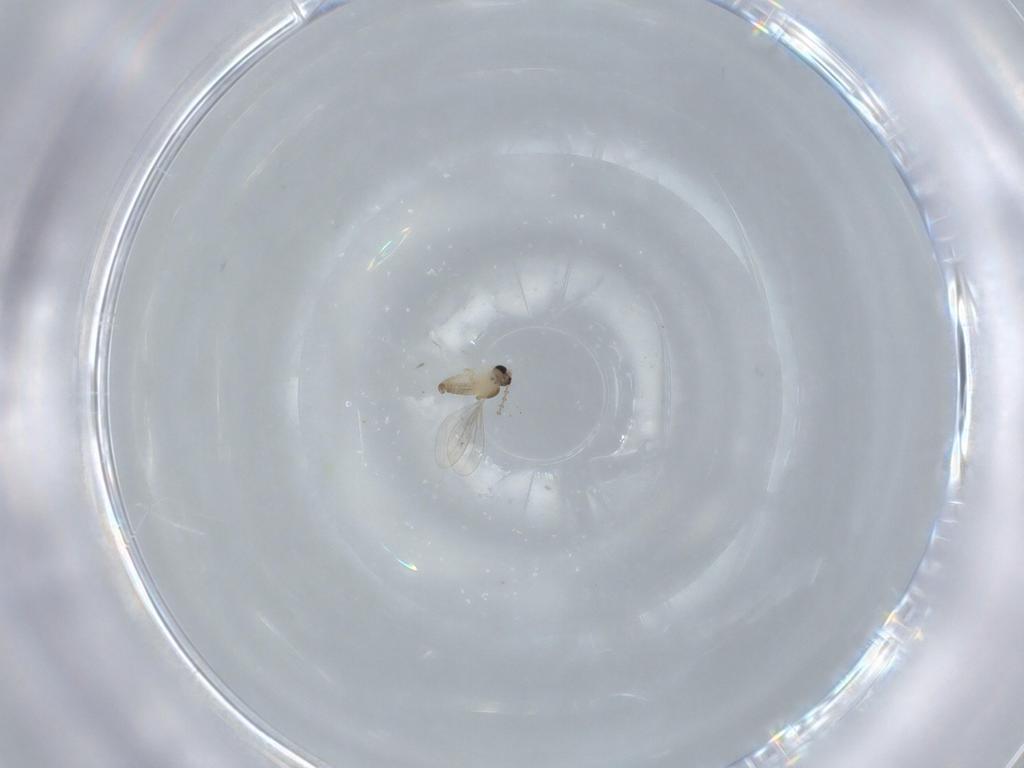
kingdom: Animalia
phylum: Arthropoda
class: Insecta
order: Diptera
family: Cecidomyiidae
